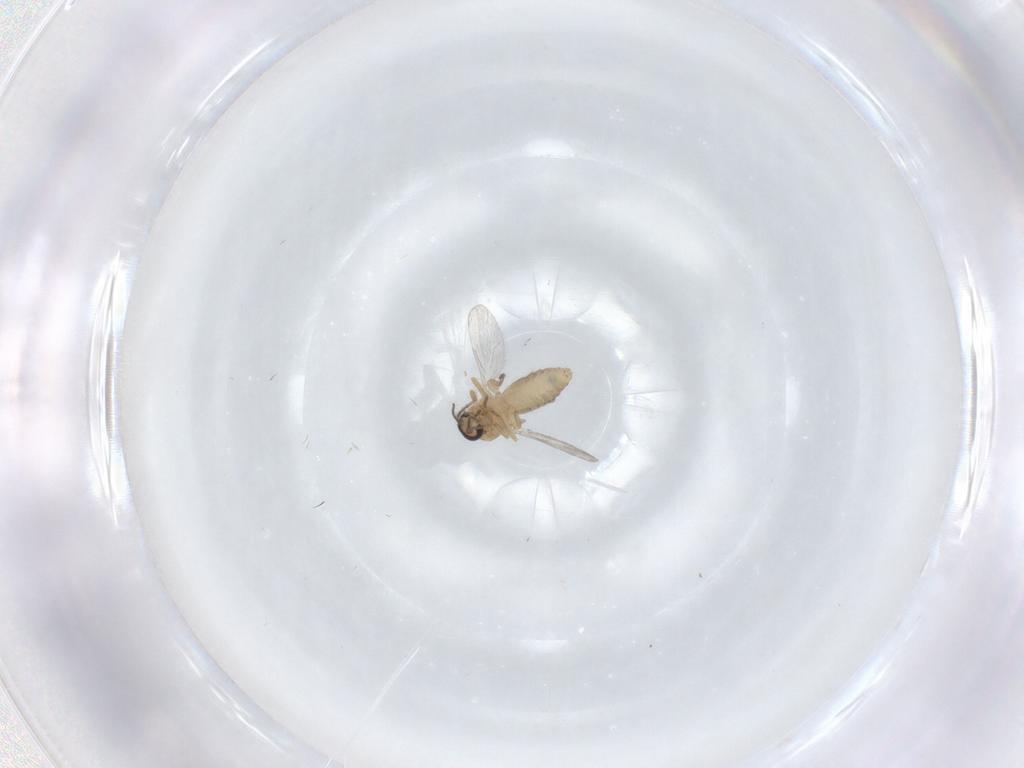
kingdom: Animalia
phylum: Arthropoda
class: Insecta
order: Diptera
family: Ceratopogonidae
